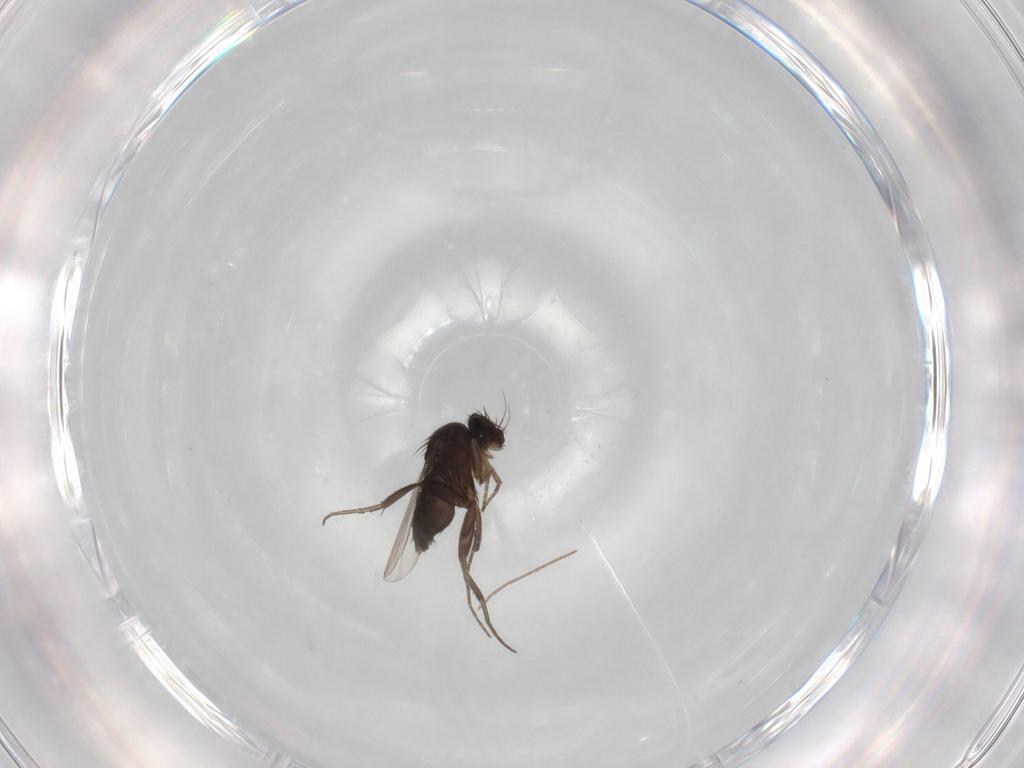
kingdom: Animalia
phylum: Arthropoda
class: Insecta
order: Diptera
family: Phoridae
